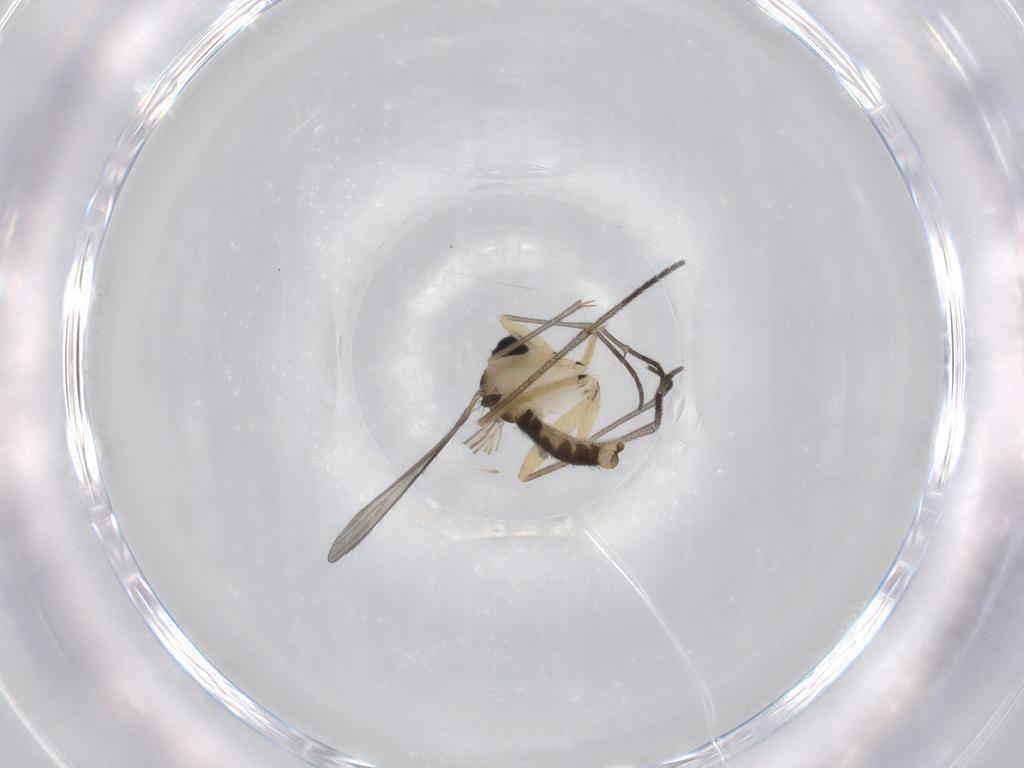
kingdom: Animalia
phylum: Arthropoda
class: Insecta
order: Diptera
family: Sciaridae
